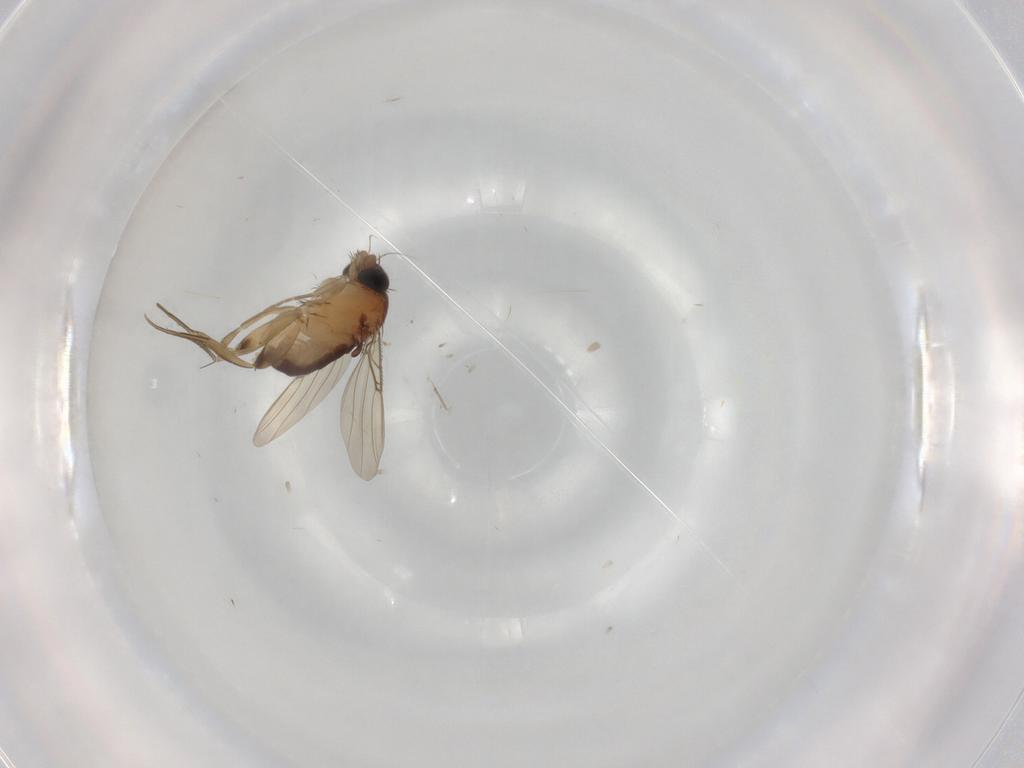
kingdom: Animalia
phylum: Arthropoda
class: Insecta
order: Diptera
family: Phoridae
